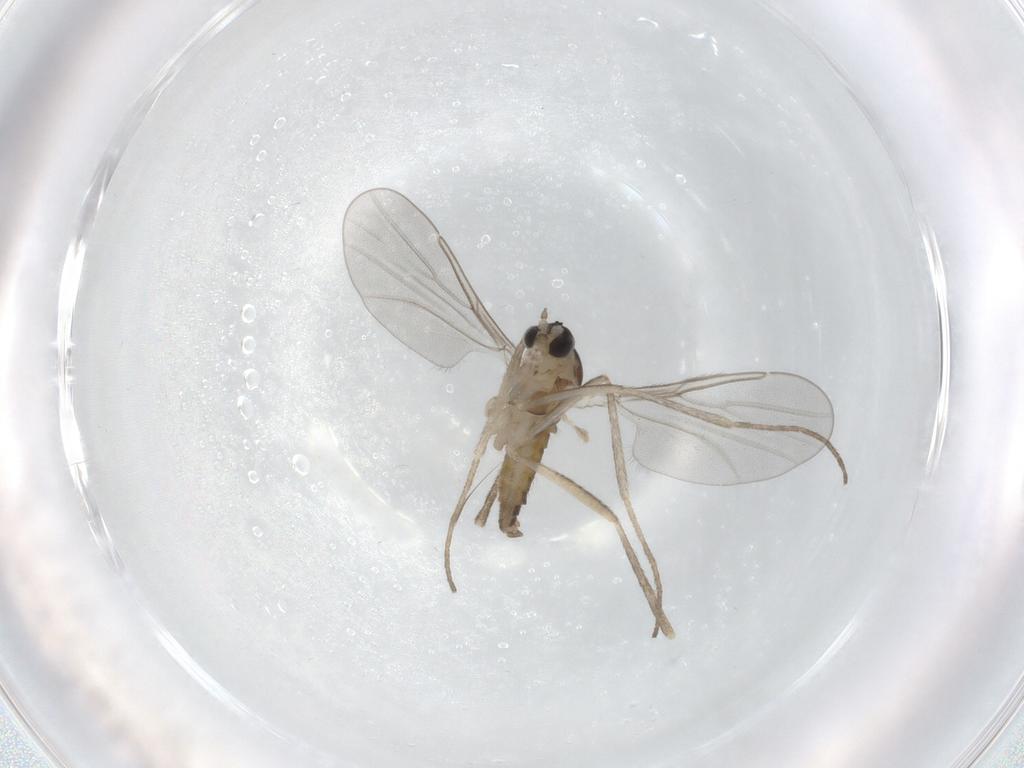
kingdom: Animalia
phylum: Arthropoda
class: Insecta
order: Diptera
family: Cecidomyiidae
